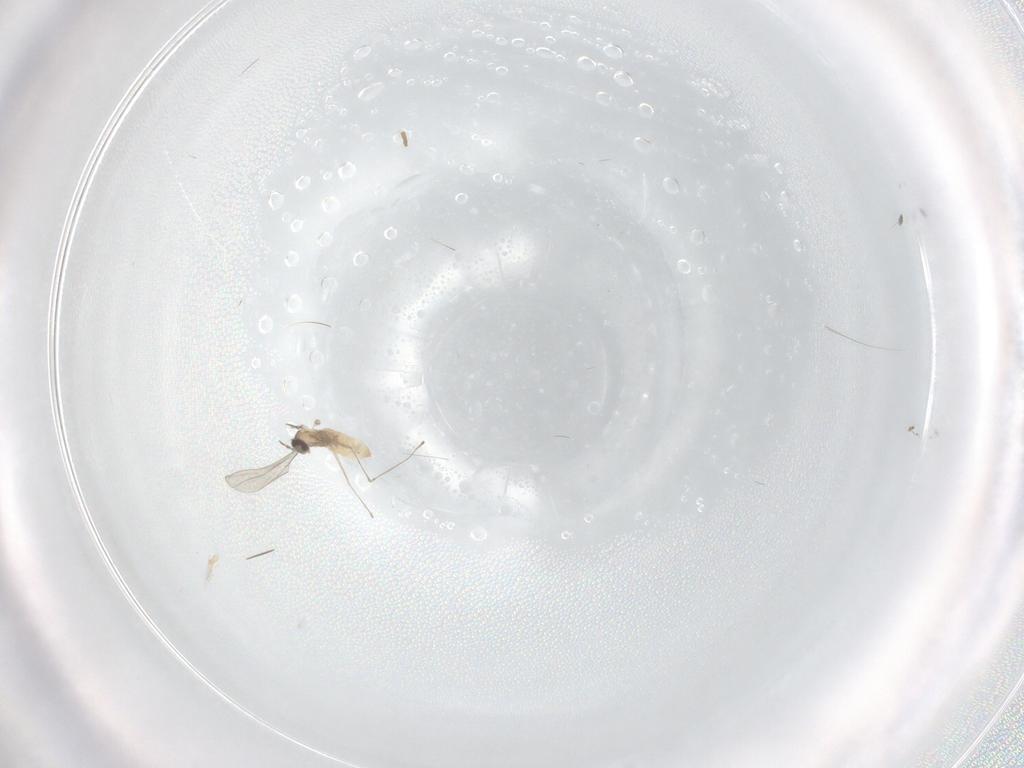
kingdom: Animalia
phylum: Arthropoda
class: Insecta
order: Diptera
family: Cecidomyiidae
